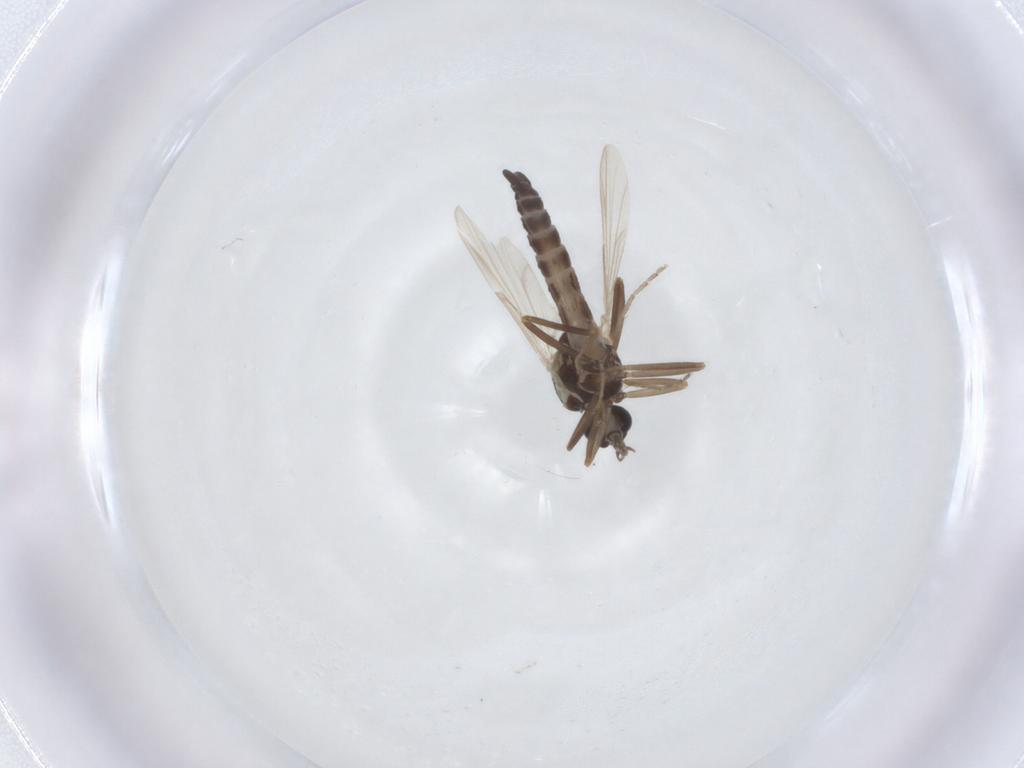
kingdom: Animalia
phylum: Arthropoda
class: Insecta
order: Diptera
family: Ceratopogonidae
